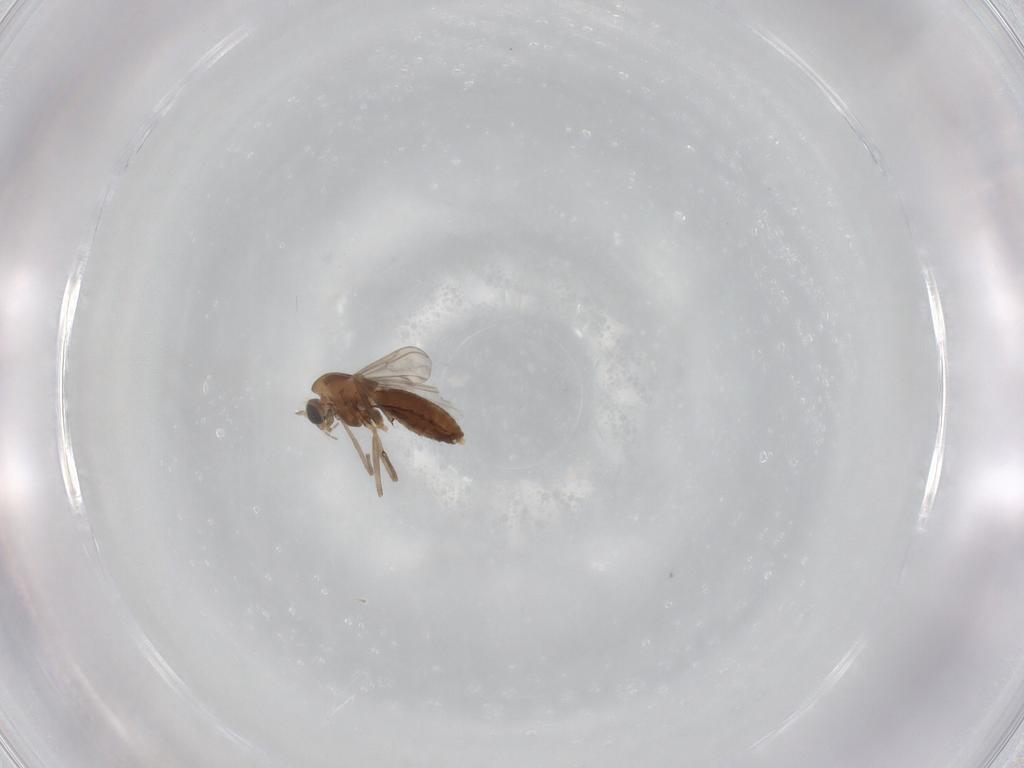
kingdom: Animalia
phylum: Arthropoda
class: Insecta
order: Diptera
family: Chironomidae
